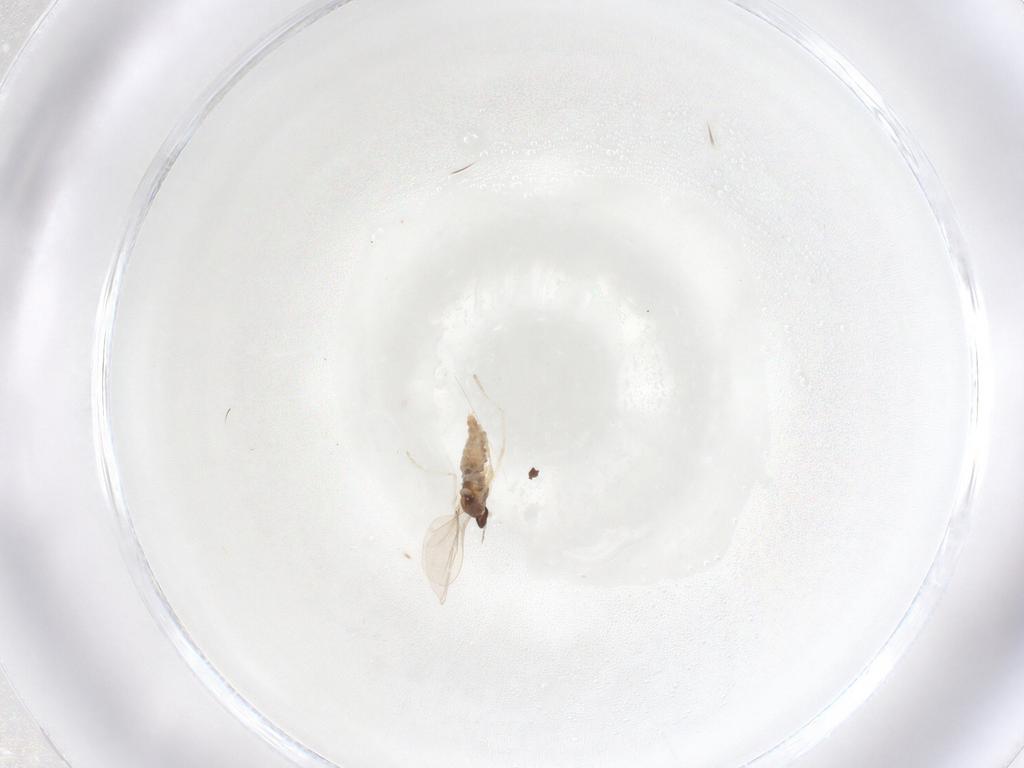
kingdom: Animalia
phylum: Arthropoda
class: Insecta
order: Diptera
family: Cecidomyiidae
